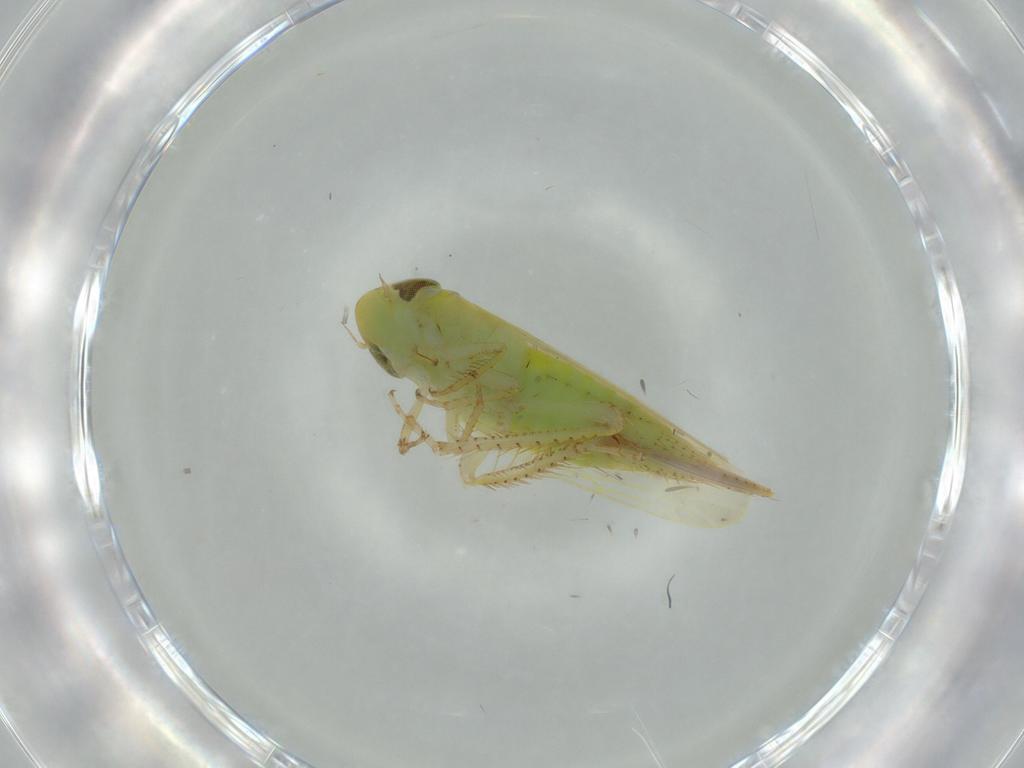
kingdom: Animalia
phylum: Arthropoda
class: Insecta
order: Hemiptera
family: Cicadellidae
